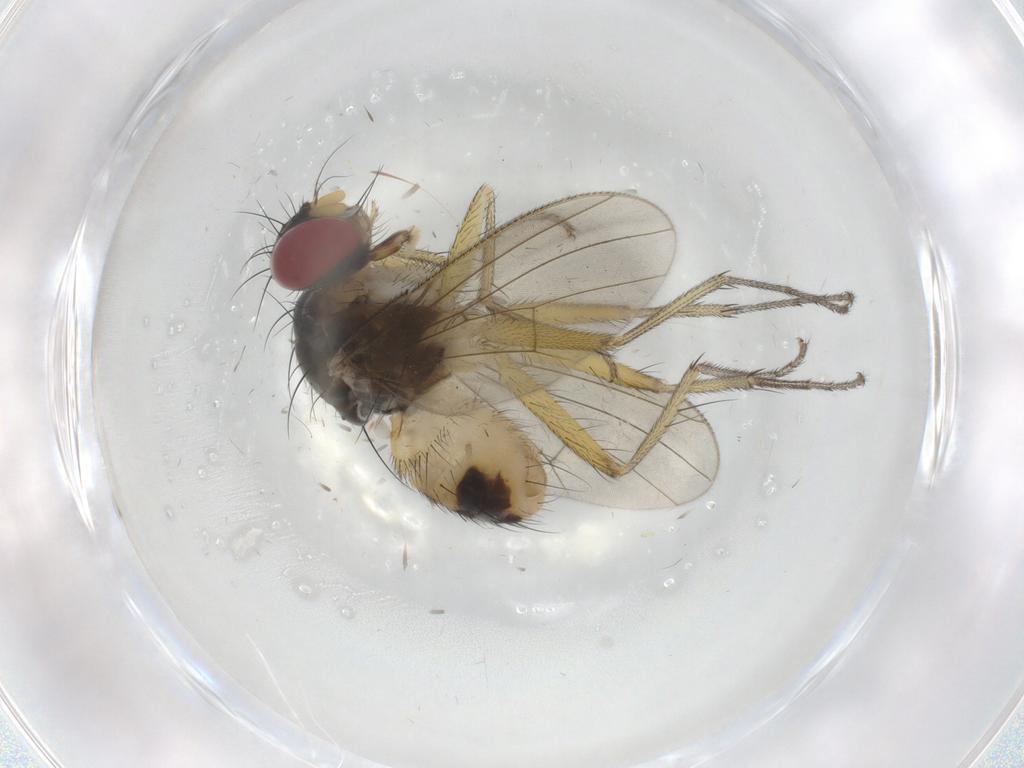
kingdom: Animalia
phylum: Arthropoda
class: Insecta
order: Diptera
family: Cecidomyiidae
